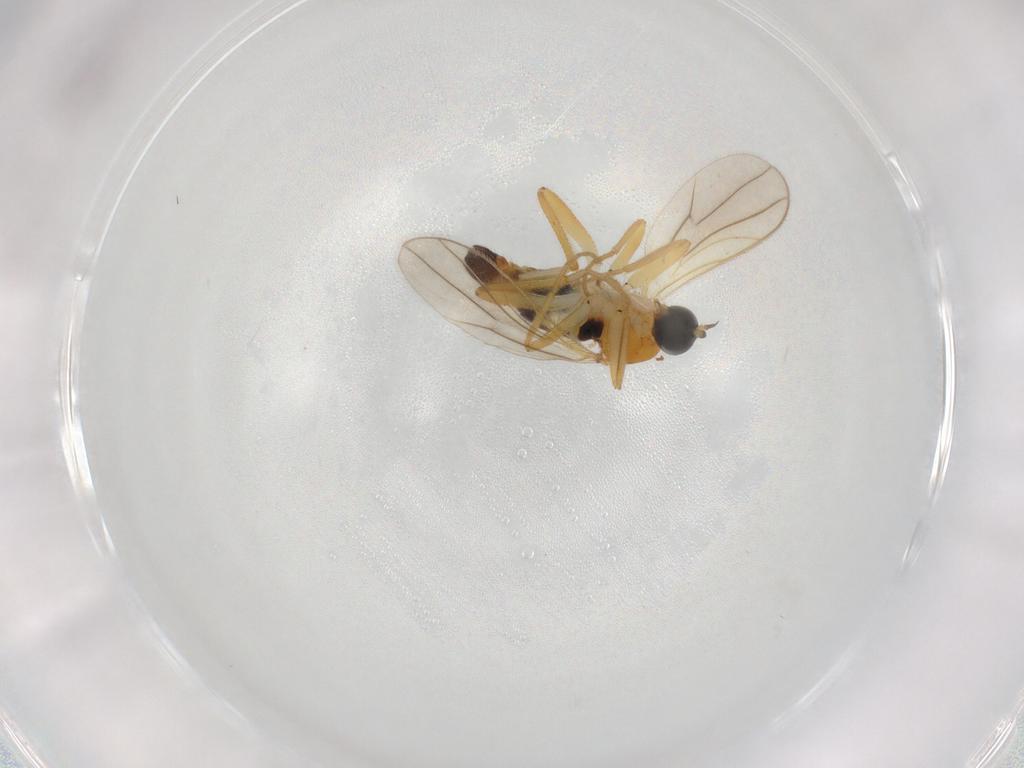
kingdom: Animalia
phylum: Arthropoda
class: Insecta
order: Diptera
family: Hybotidae
